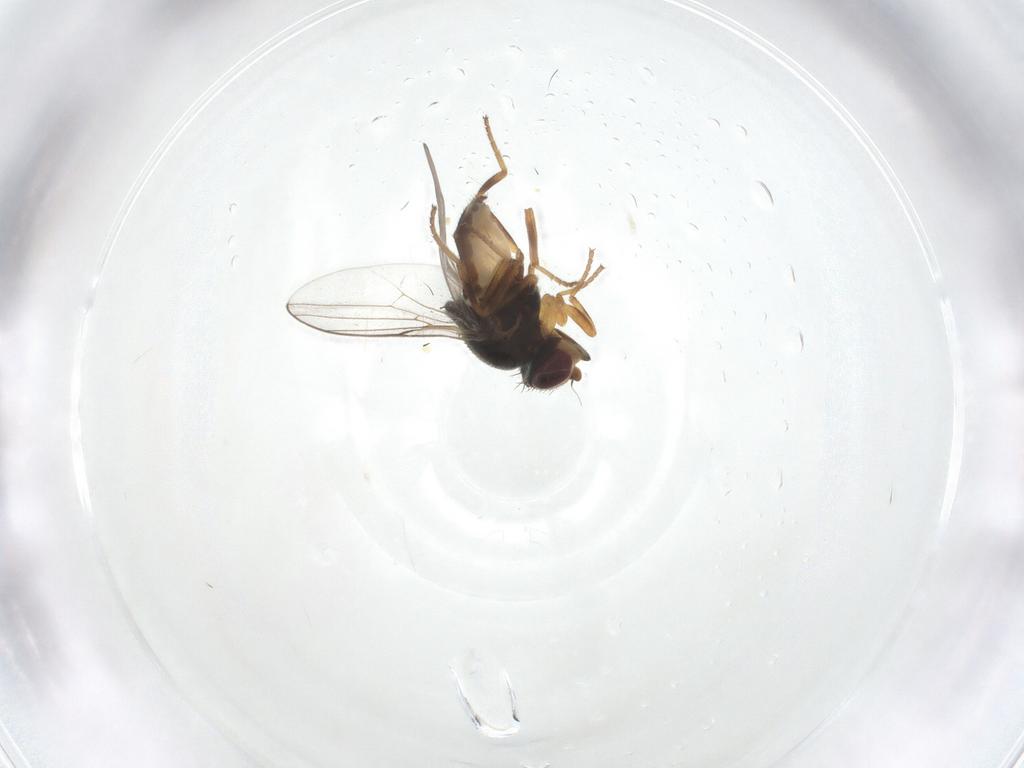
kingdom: Animalia
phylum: Arthropoda
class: Insecta
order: Diptera
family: Chloropidae
